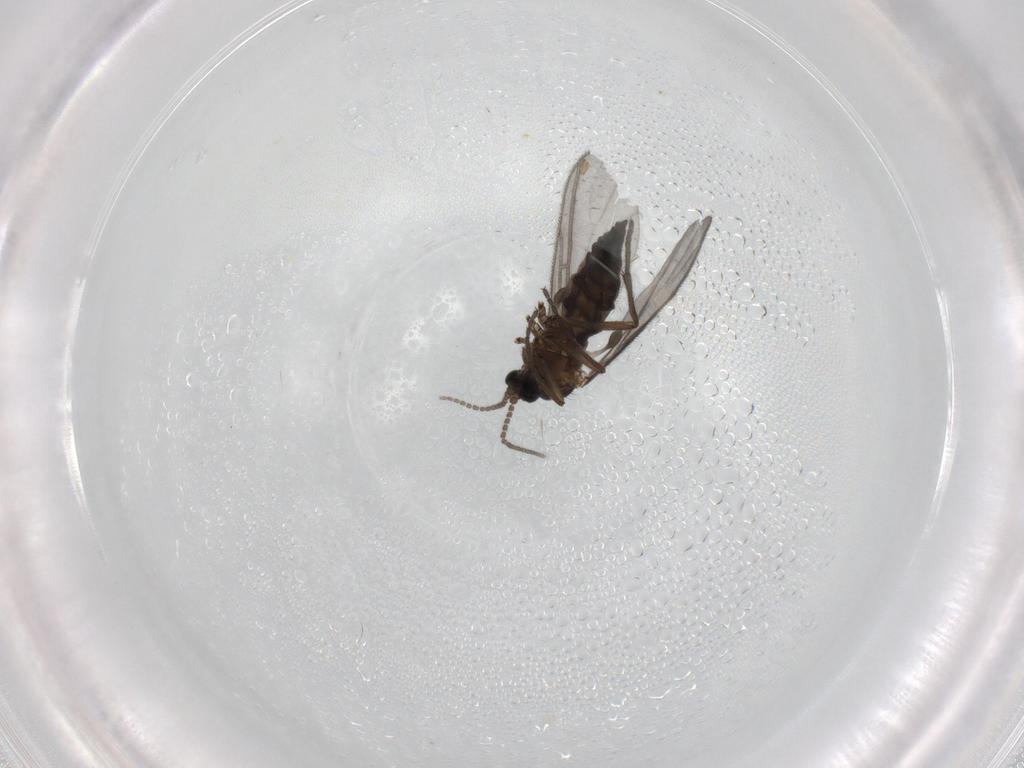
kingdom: Animalia
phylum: Arthropoda
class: Insecta
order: Diptera
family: Sciaridae
